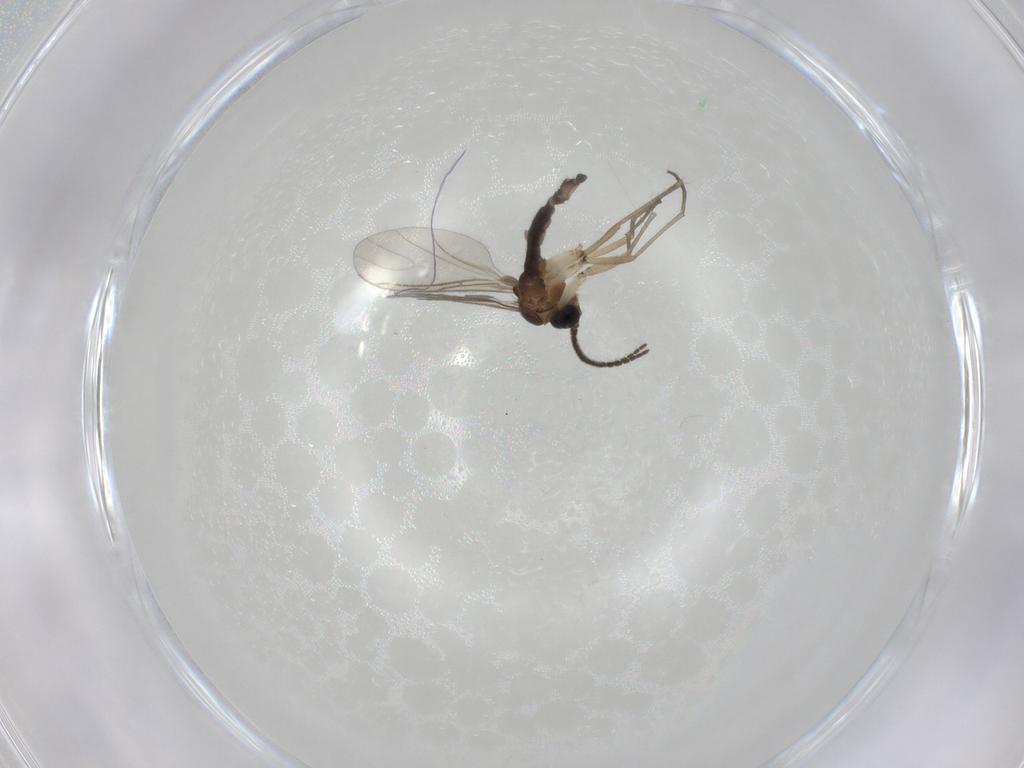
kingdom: Animalia
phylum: Arthropoda
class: Insecta
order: Diptera
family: Sciaridae
